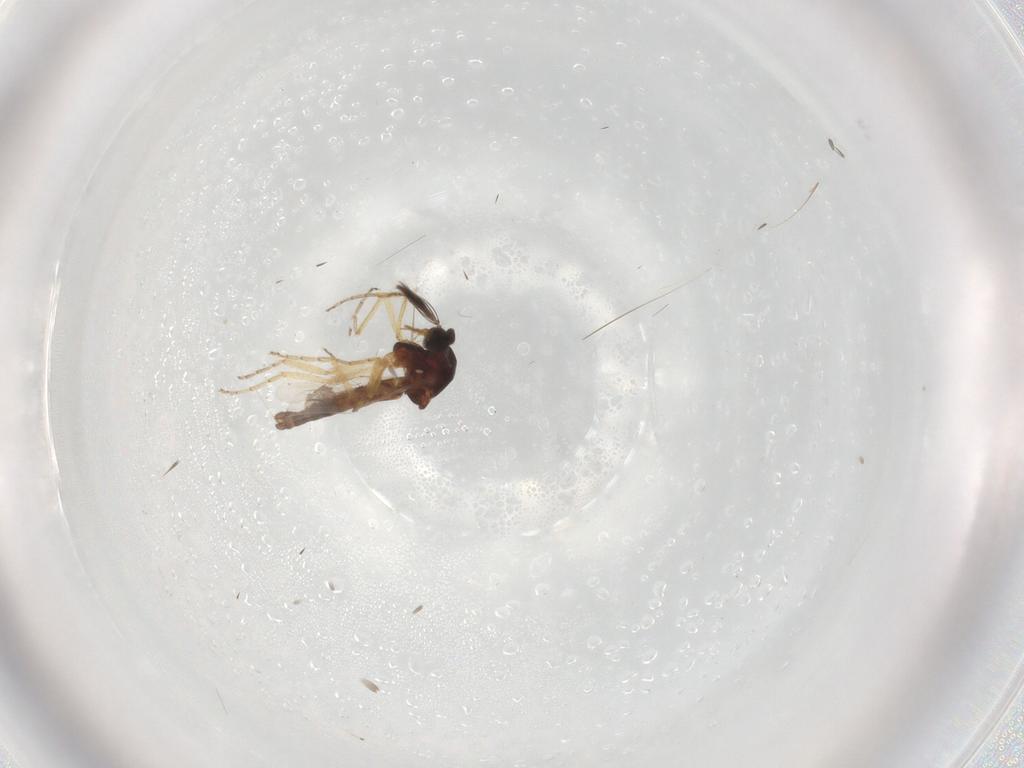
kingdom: Animalia
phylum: Arthropoda
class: Insecta
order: Diptera
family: Ceratopogonidae
